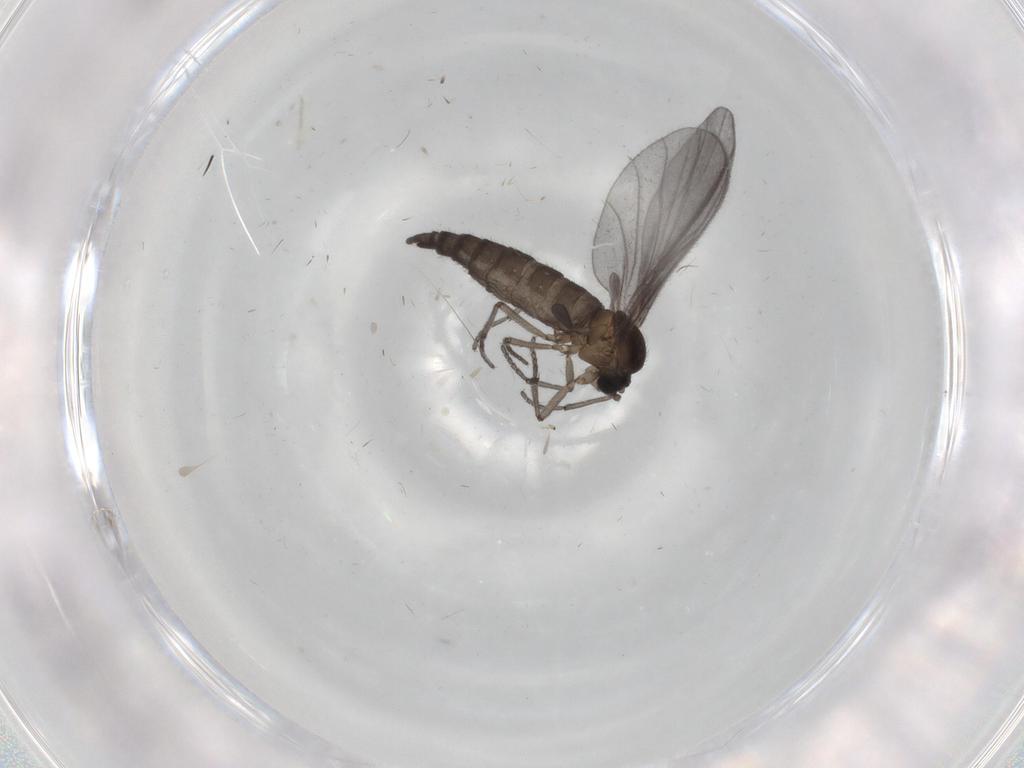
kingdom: Animalia
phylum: Arthropoda
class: Insecta
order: Diptera
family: Sciaridae
